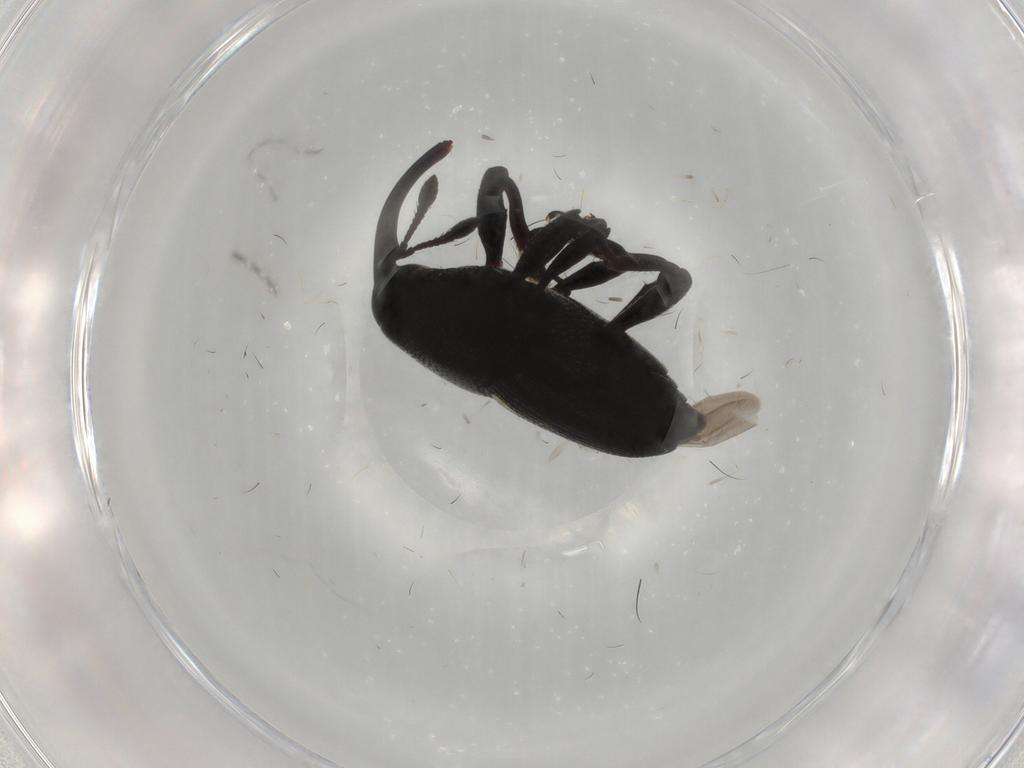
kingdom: Animalia
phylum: Arthropoda
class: Insecta
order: Coleoptera
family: Curculionidae
